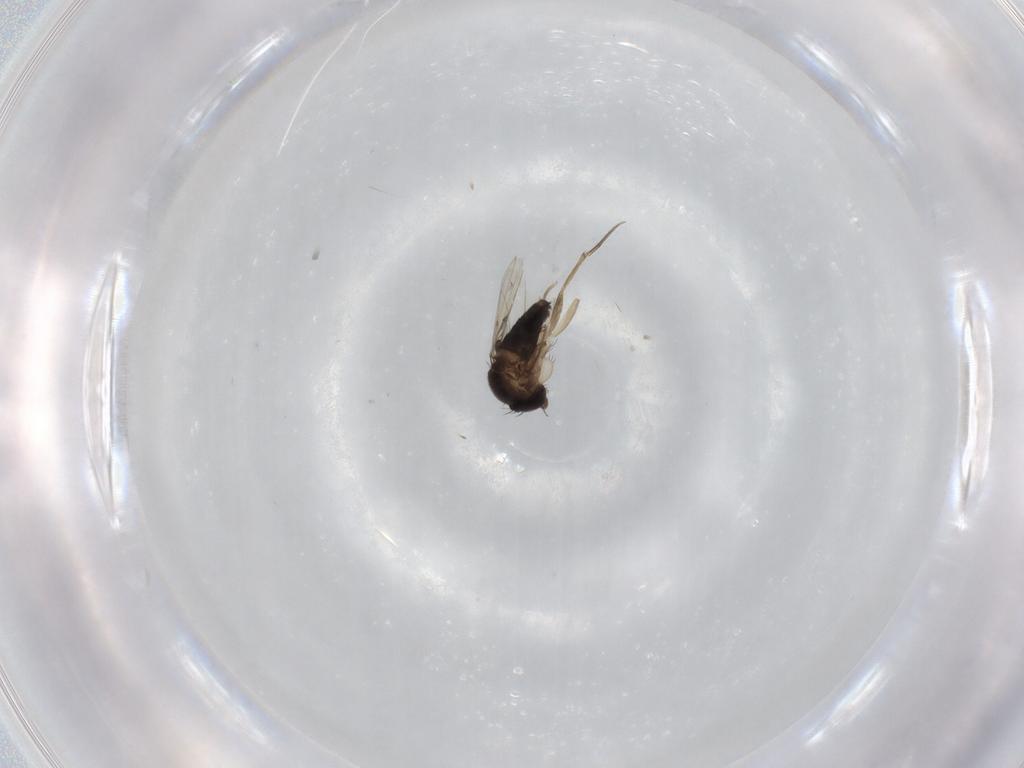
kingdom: Animalia
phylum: Arthropoda
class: Insecta
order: Diptera
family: Phoridae
